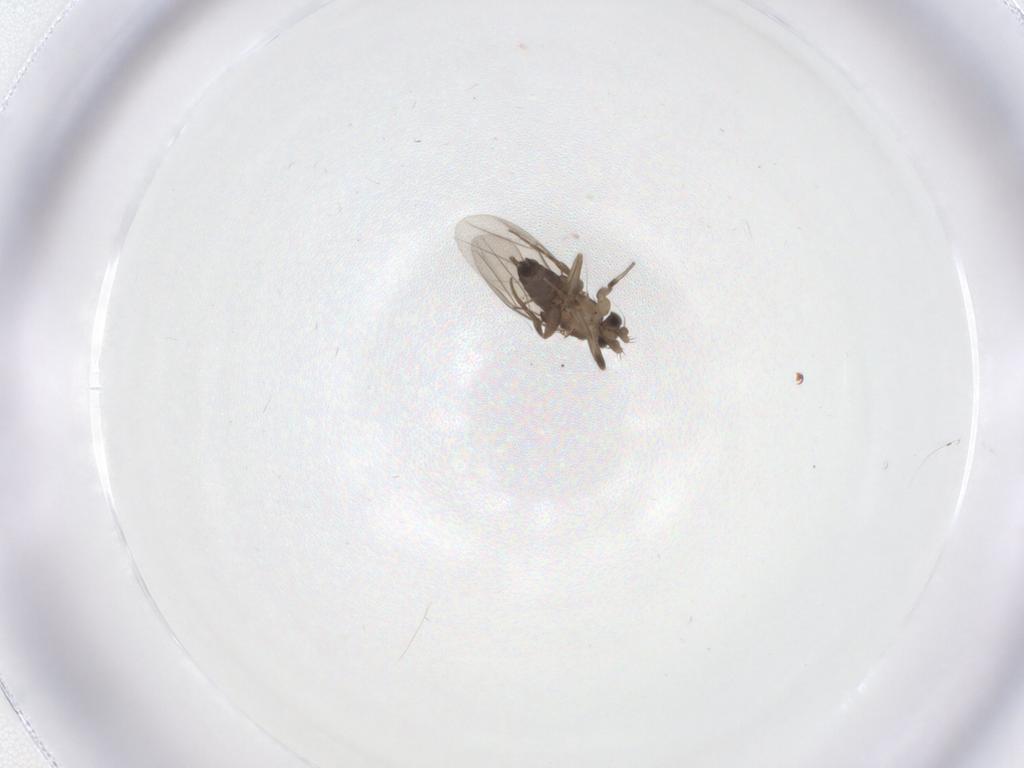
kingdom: Animalia
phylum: Arthropoda
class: Insecta
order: Diptera
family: Phoridae
